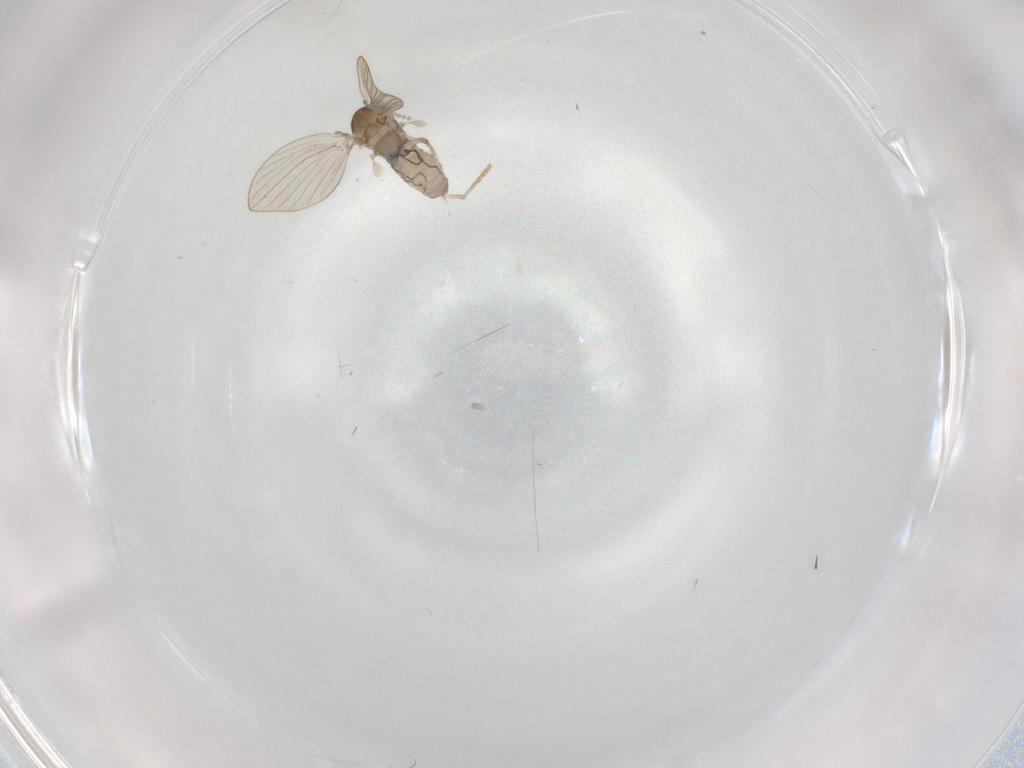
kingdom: Animalia
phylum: Arthropoda
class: Insecta
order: Diptera
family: Psychodidae
